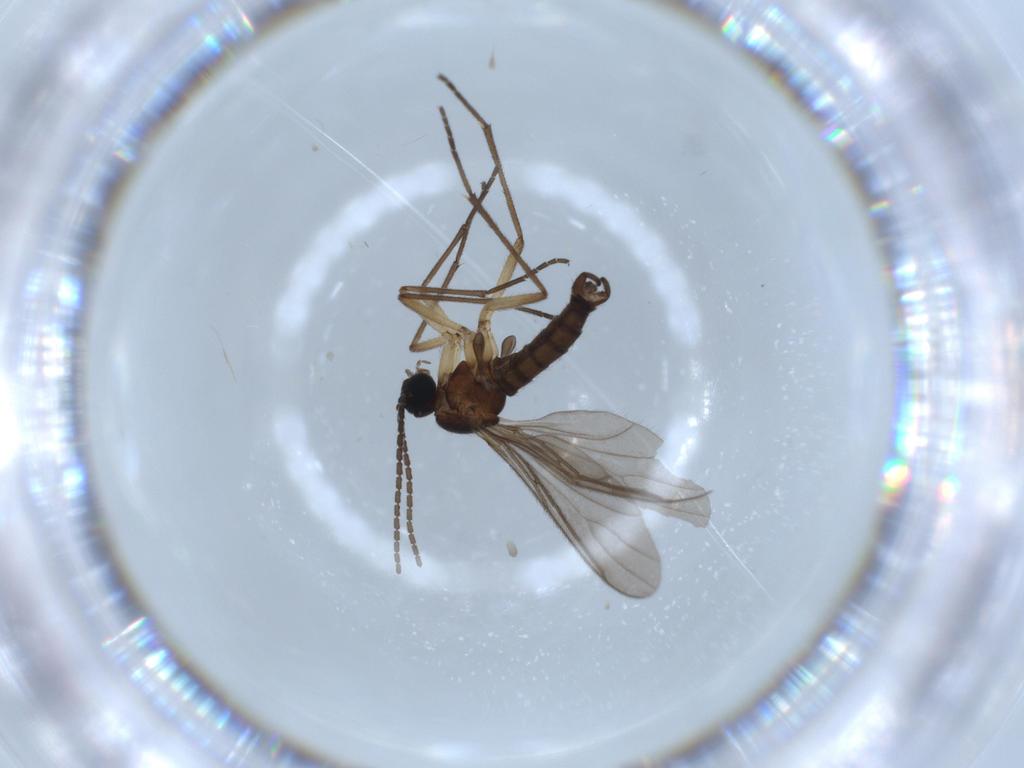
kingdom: Animalia
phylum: Arthropoda
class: Insecta
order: Diptera
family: Sciaridae
